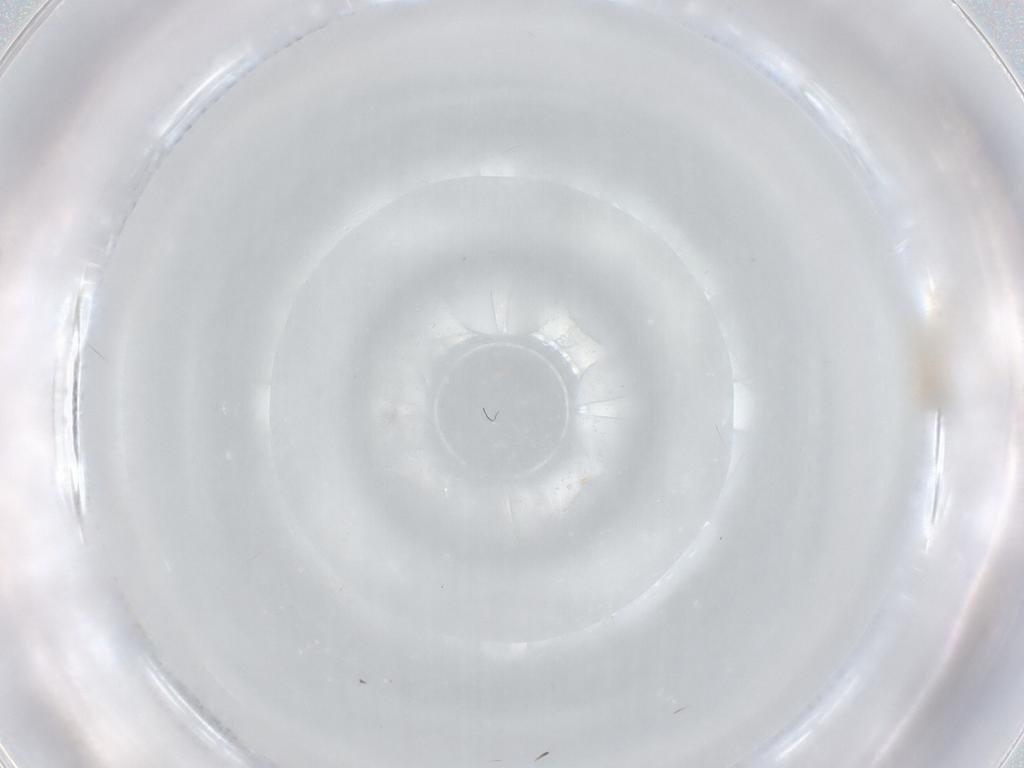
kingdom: Animalia
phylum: Arthropoda
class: Insecta
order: Diptera
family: Cecidomyiidae
